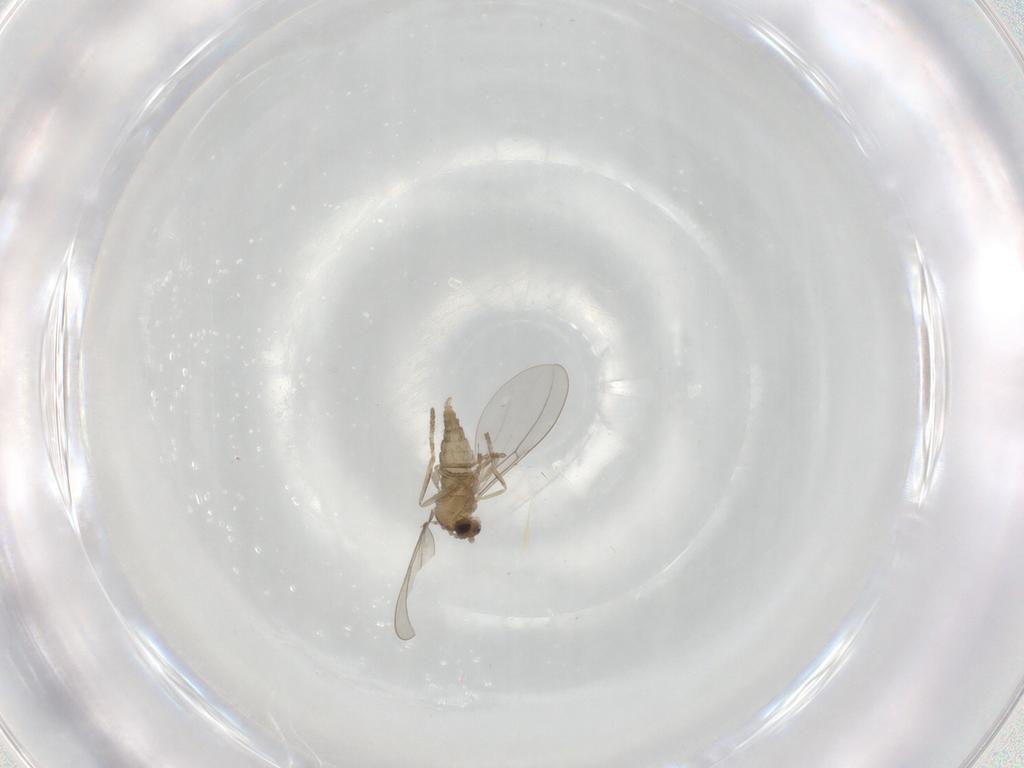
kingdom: Animalia
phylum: Arthropoda
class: Insecta
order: Diptera
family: Cecidomyiidae
